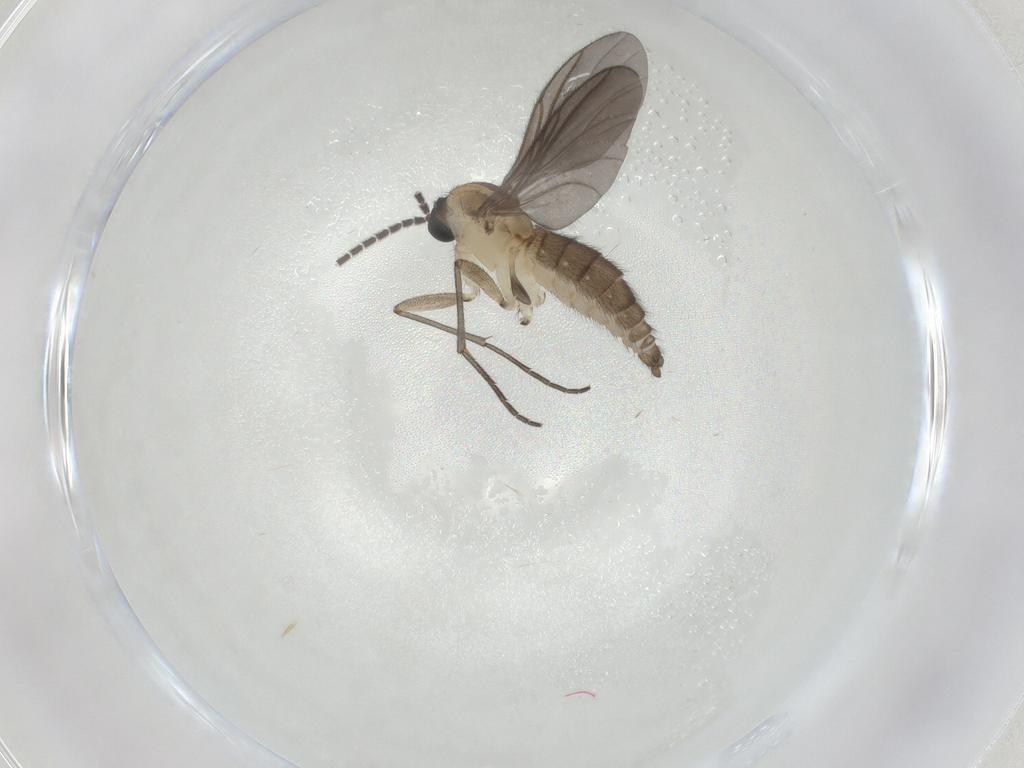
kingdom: Animalia
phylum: Arthropoda
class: Insecta
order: Diptera
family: Sciaridae
